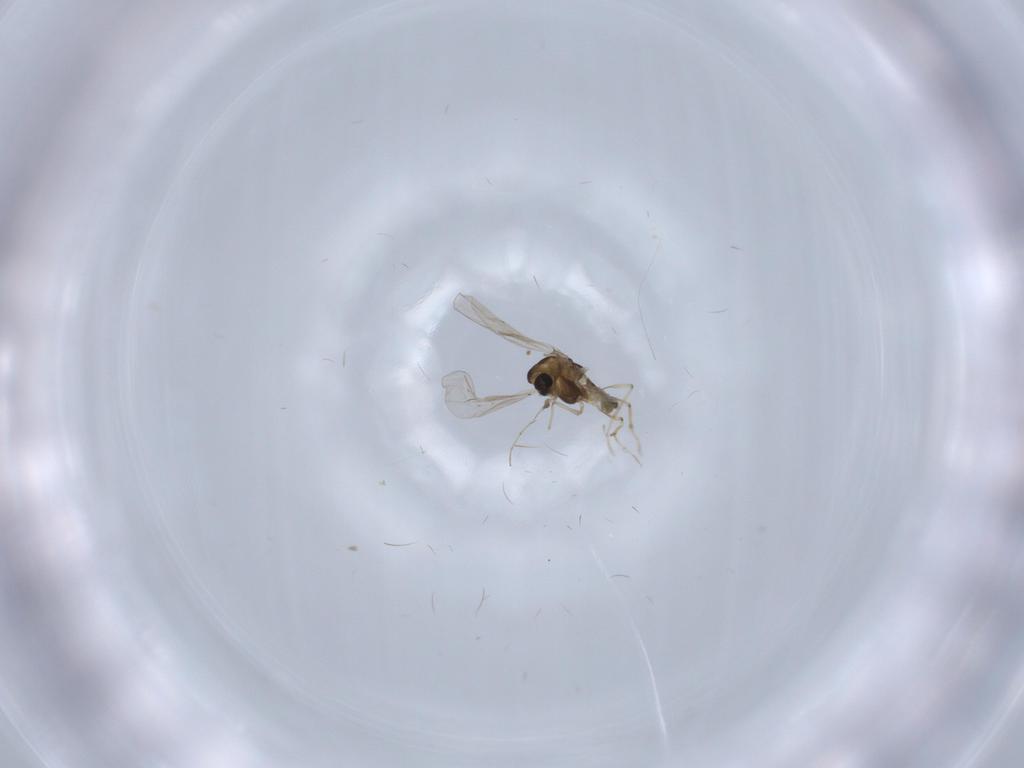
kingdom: Animalia
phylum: Arthropoda
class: Insecta
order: Diptera
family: Chironomidae
